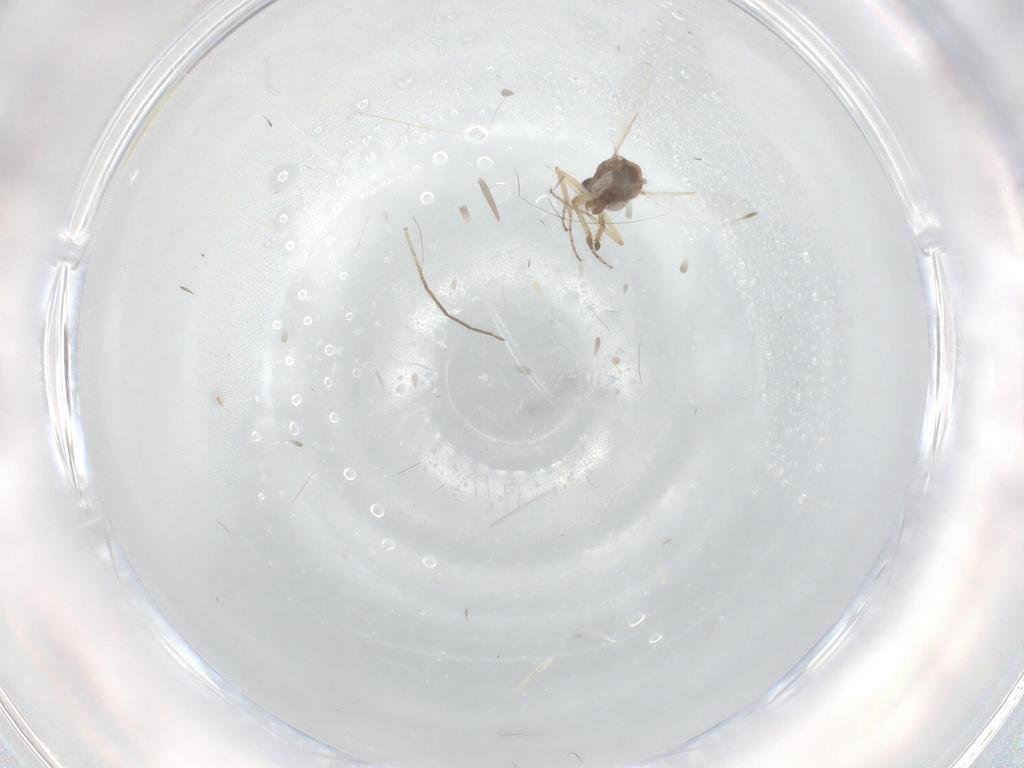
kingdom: Animalia
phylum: Arthropoda
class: Insecta
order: Diptera
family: Ceratopogonidae
